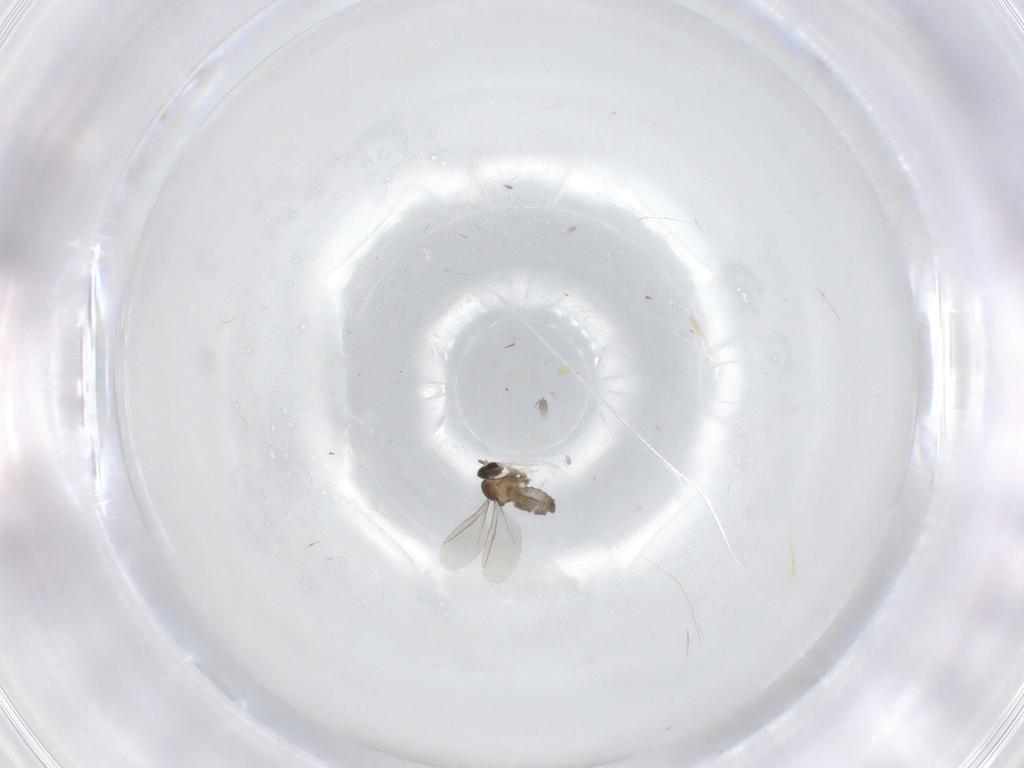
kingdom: Animalia
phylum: Arthropoda
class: Insecta
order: Diptera
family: Cecidomyiidae
